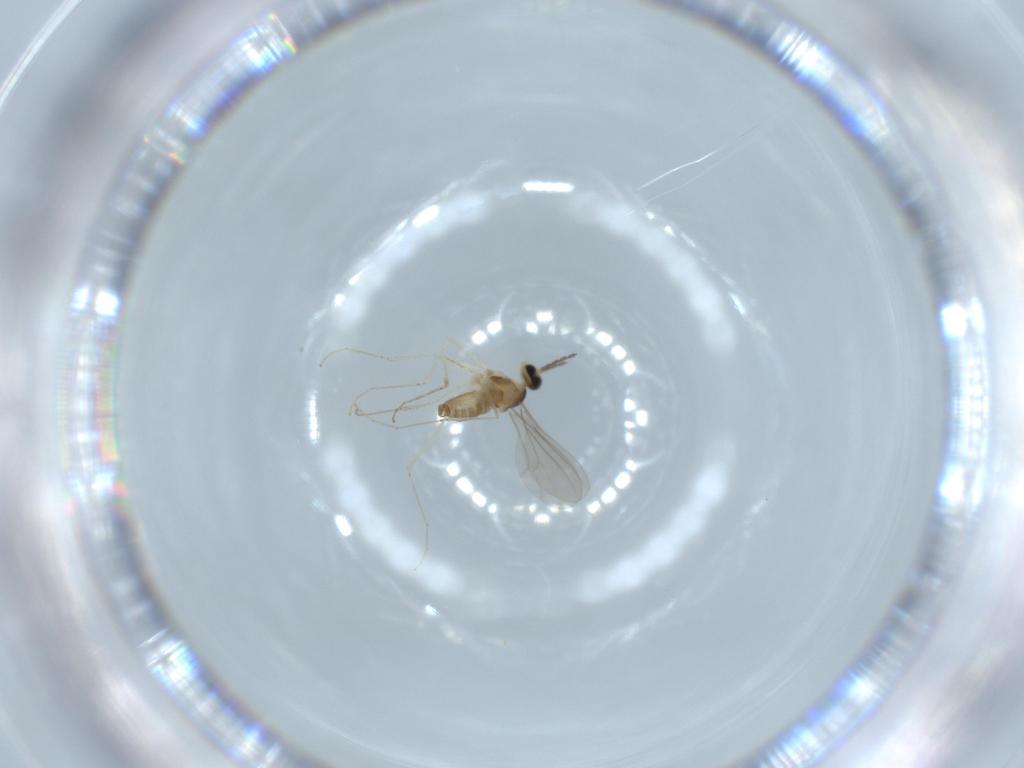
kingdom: Animalia
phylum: Arthropoda
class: Insecta
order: Diptera
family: Cecidomyiidae
